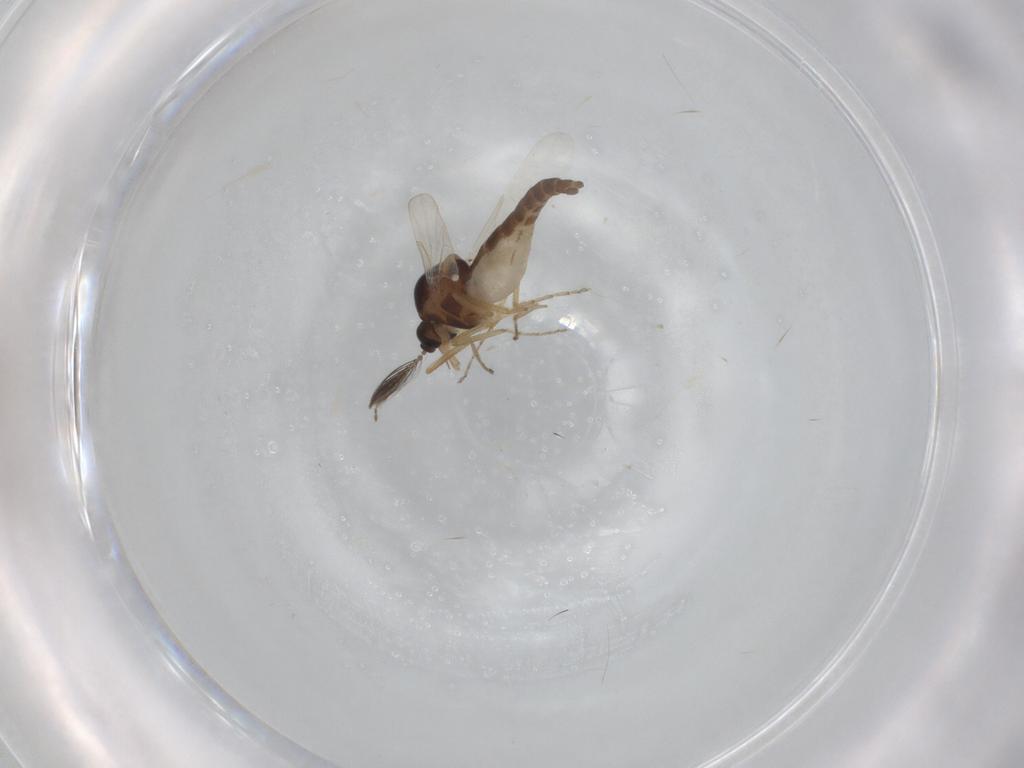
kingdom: Animalia
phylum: Arthropoda
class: Insecta
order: Diptera
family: Ceratopogonidae
